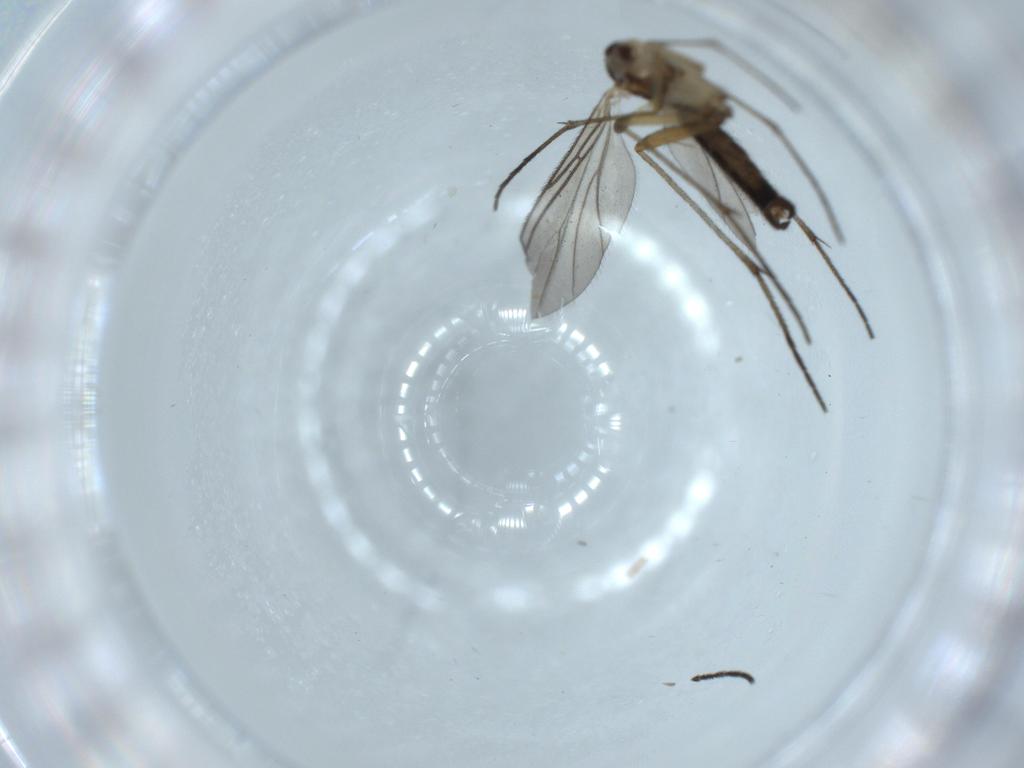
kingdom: Animalia
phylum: Arthropoda
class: Insecta
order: Diptera
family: Sciaridae
